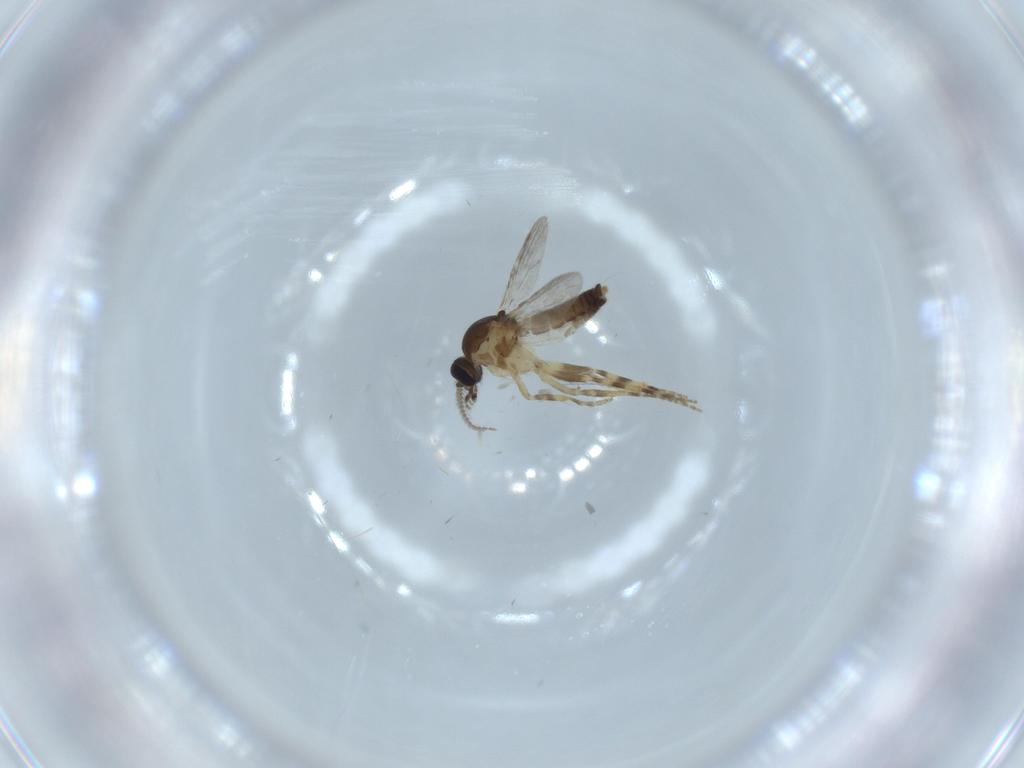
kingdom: Animalia
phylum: Arthropoda
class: Insecta
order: Diptera
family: Ceratopogonidae
